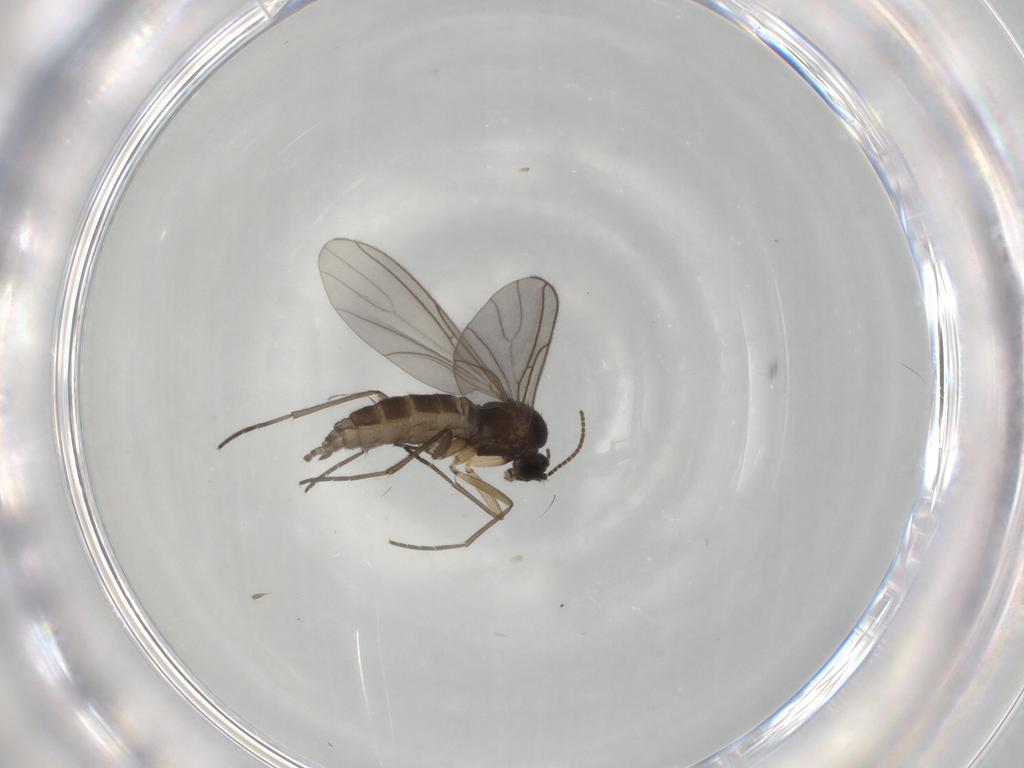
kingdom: Animalia
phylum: Arthropoda
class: Insecta
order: Diptera
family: Sciaridae
